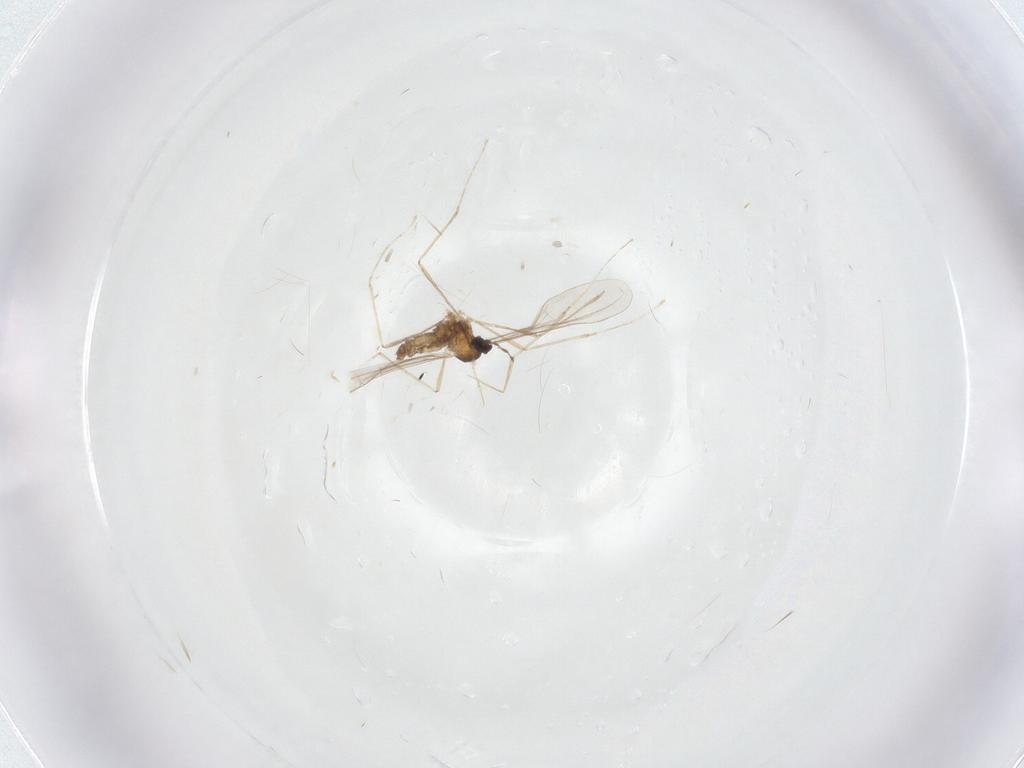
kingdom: Animalia
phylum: Arthropoda
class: Insecta
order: Diptera
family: Cecidomyiidae
